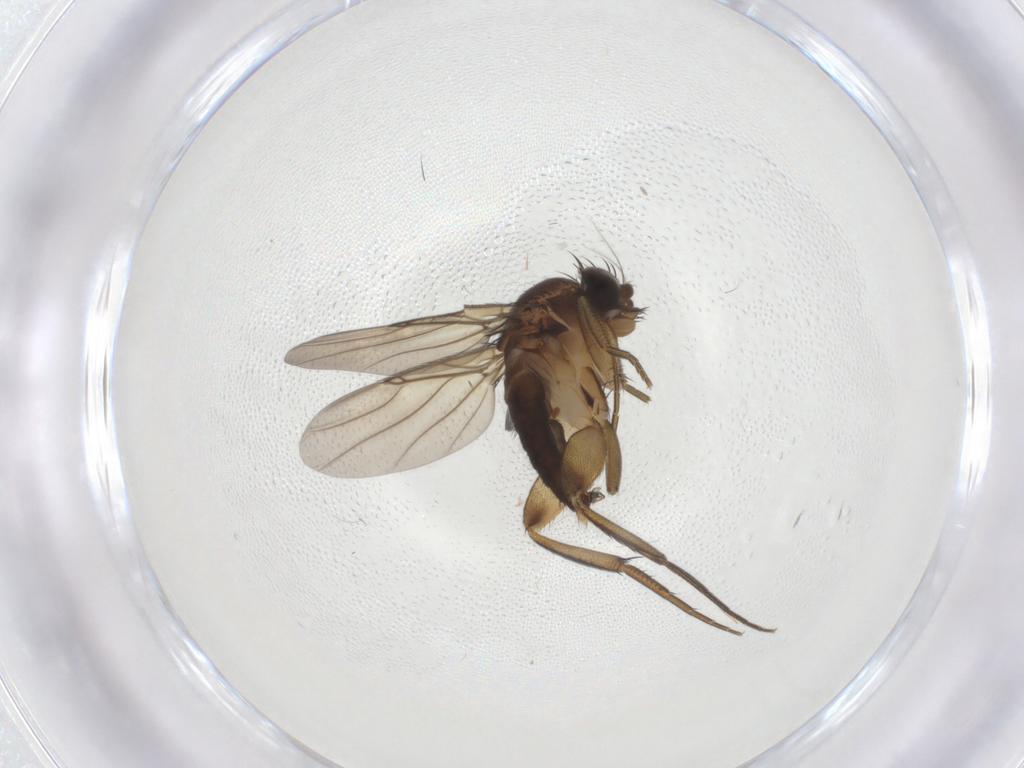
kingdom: Animalia
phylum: Arthropoda
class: Insecta
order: Diptera
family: Phoridae
